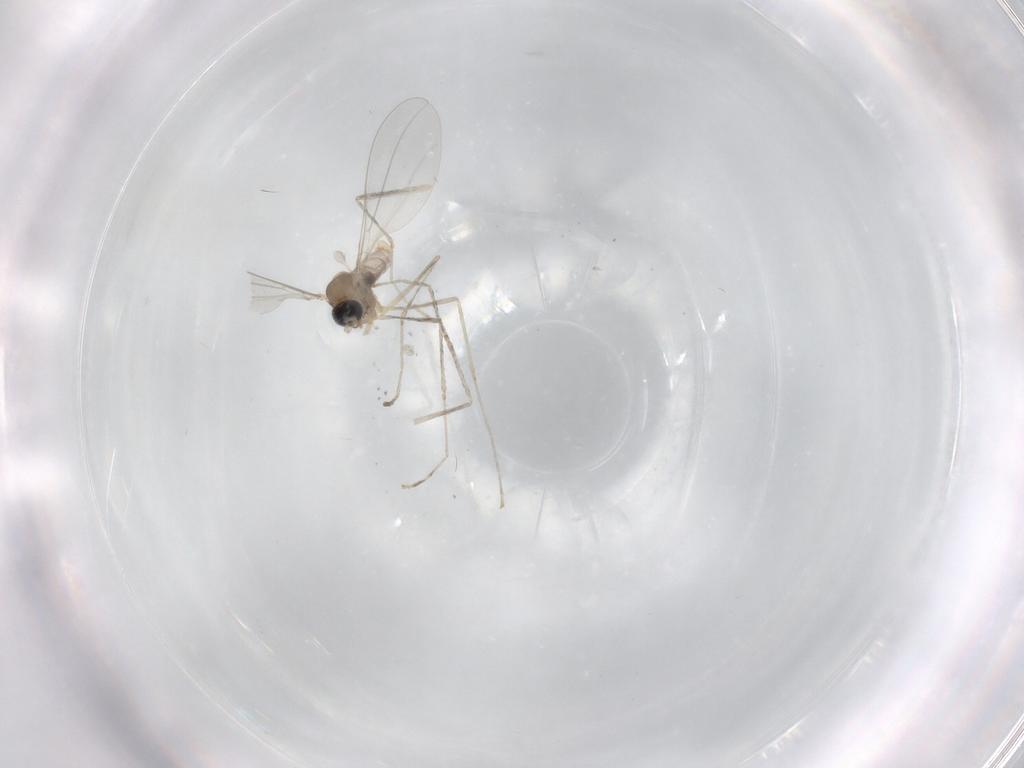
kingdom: Animalia
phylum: Arthropoda
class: Insecta
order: Diptera
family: Cecidomyiidae
